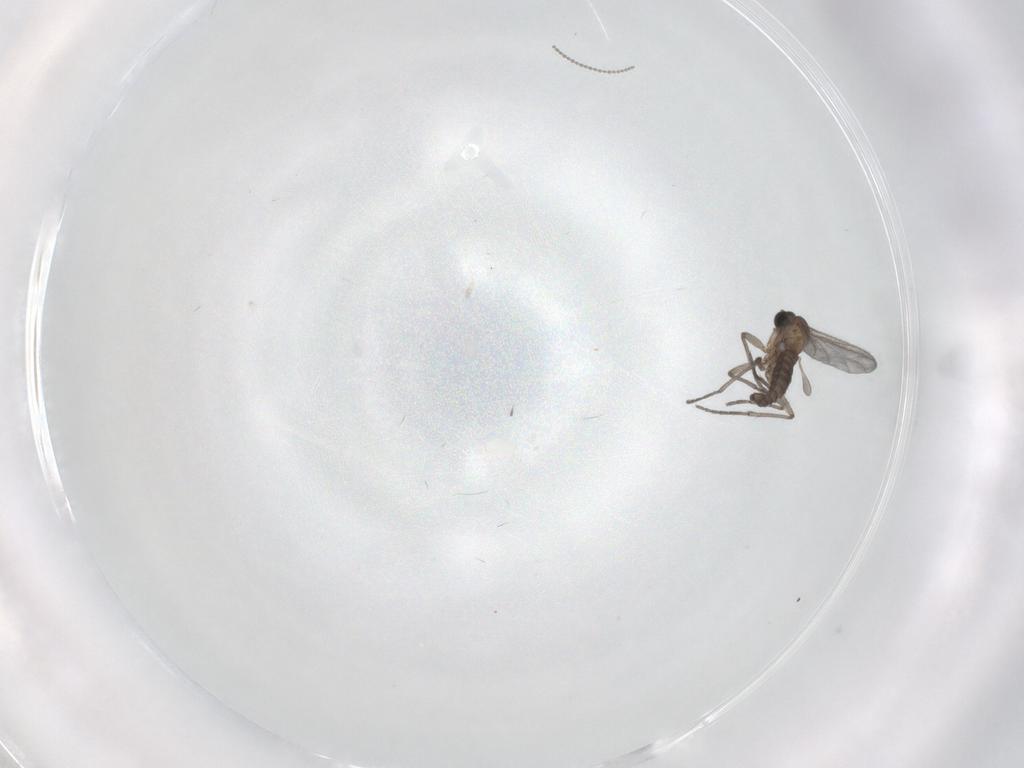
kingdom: Animalia
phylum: Arthropoda
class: Insecta
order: Diptera
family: Sciaridae
